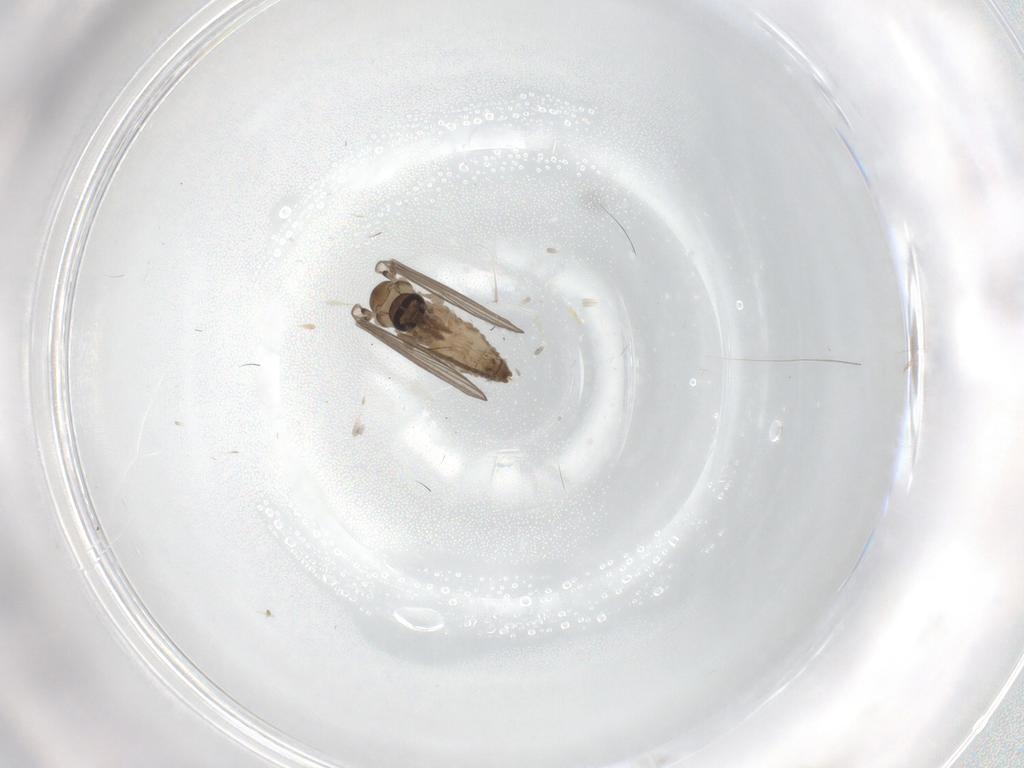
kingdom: Animalia
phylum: Arthropoda
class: Insecta
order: Diptera
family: Psychodidae
